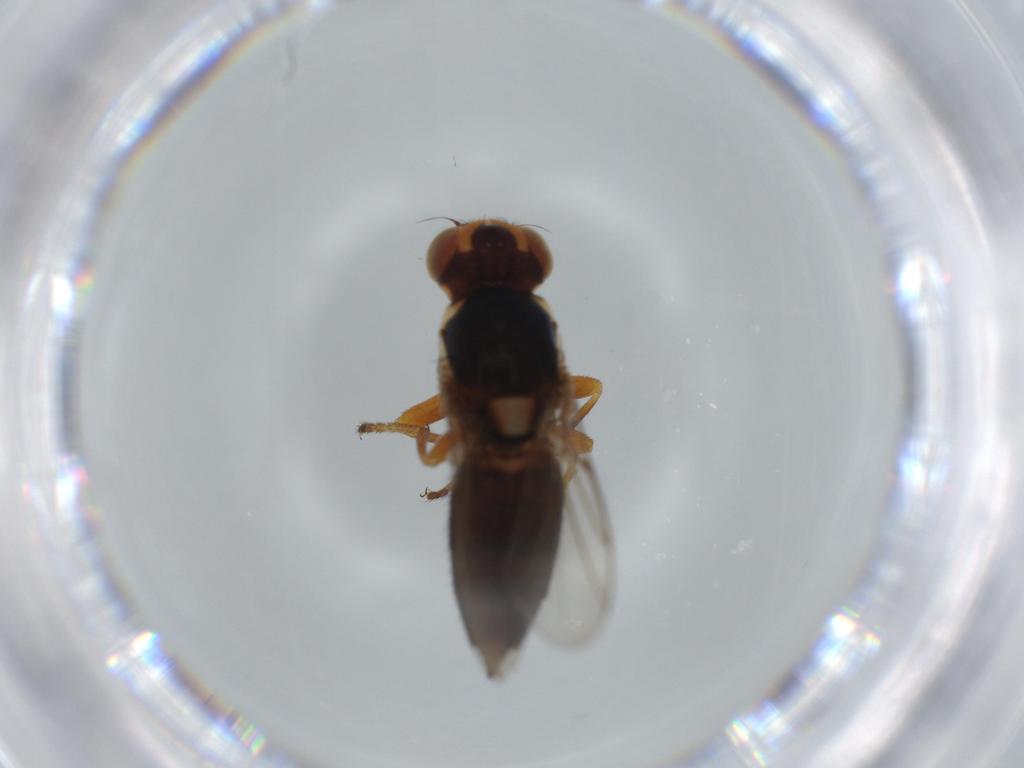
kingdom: Animalia
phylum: Arthropoda
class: Insecta
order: Diptera
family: Chloropidae
